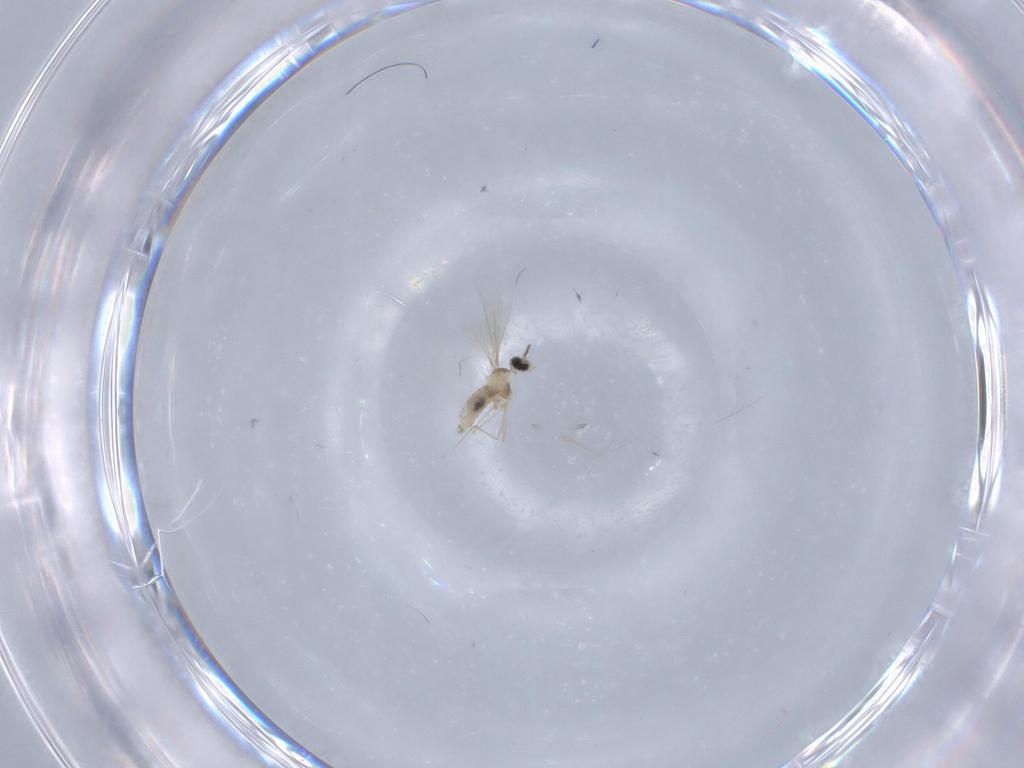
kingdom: Animalia
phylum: Arthropoda
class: Insecta
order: Diptera
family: Cecidomyiidae
